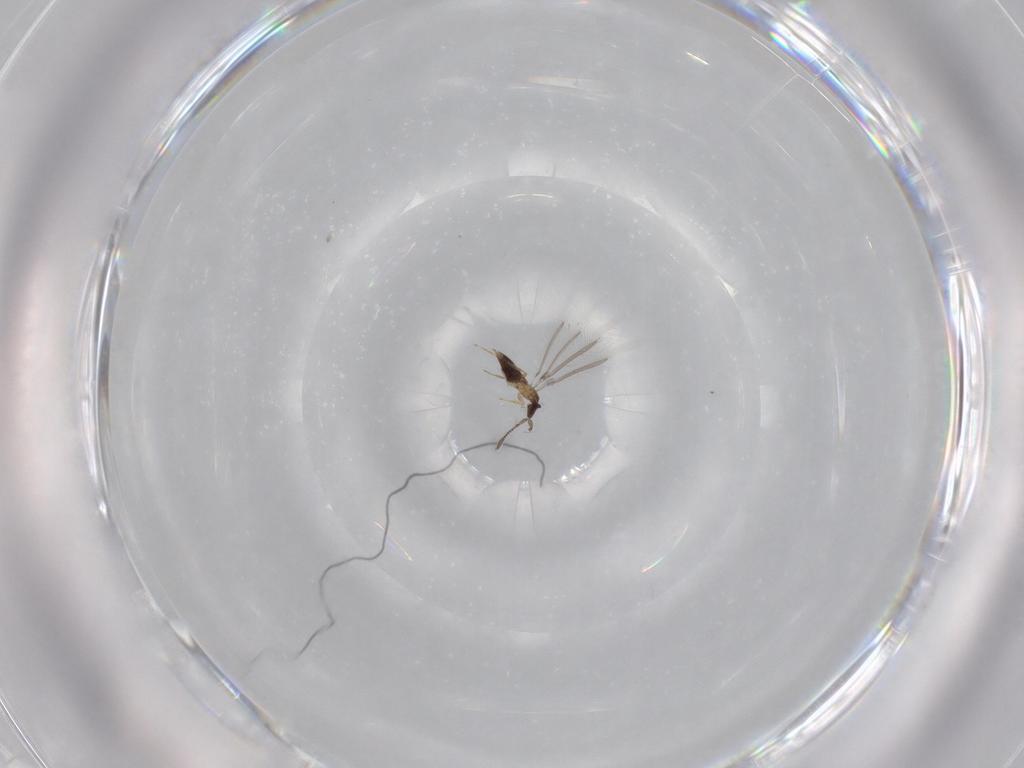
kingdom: Animalia
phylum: Arthropoda
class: Insecta
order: Hymenoptera
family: Mymaridae
